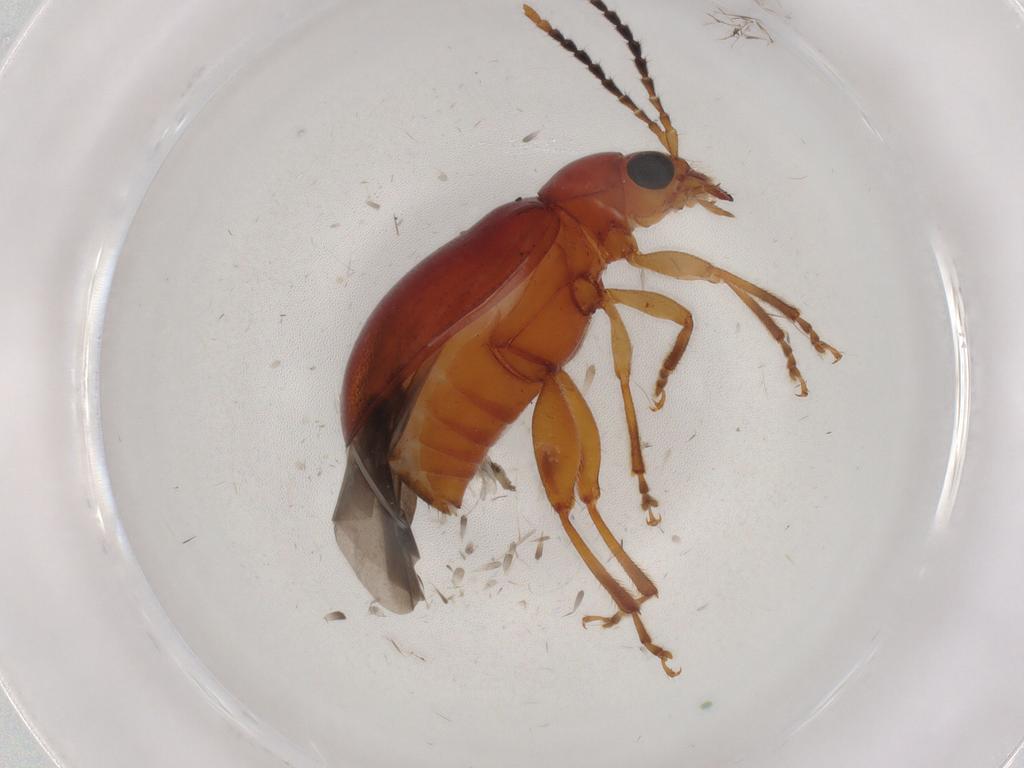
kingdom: Animalia
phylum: Arthropoda
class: Insecta
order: Coleoptera
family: Chrysomelidae
